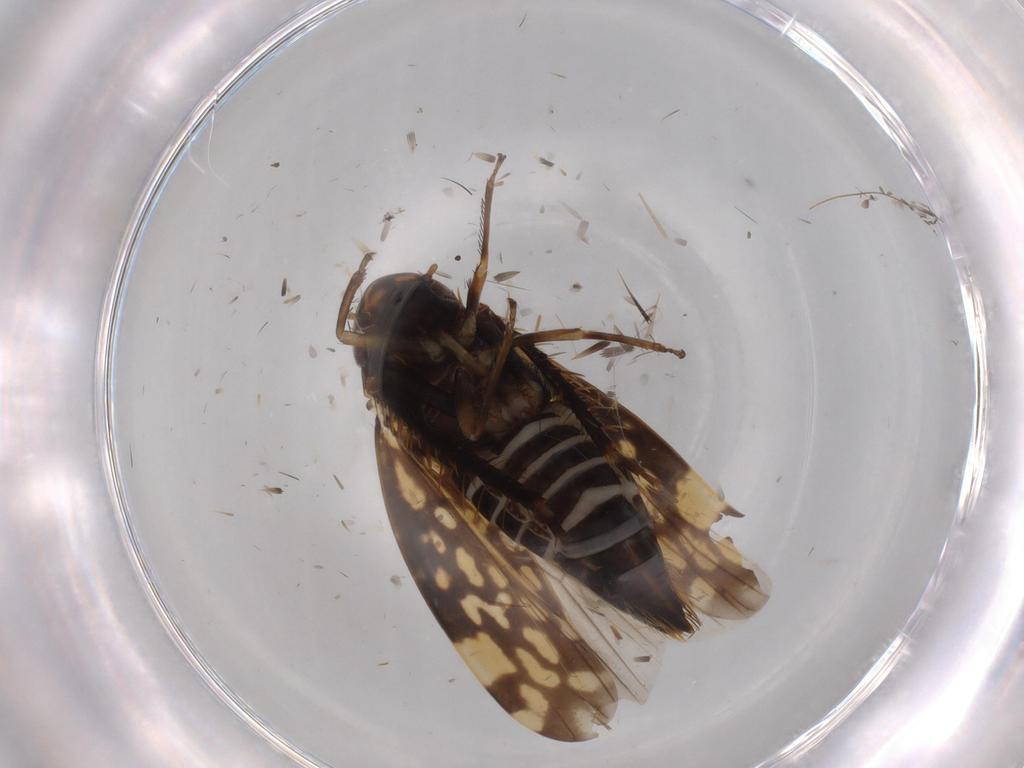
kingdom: Animalia
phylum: Arthropoda
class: Insecta
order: Hemiptera
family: Cicadellidae
